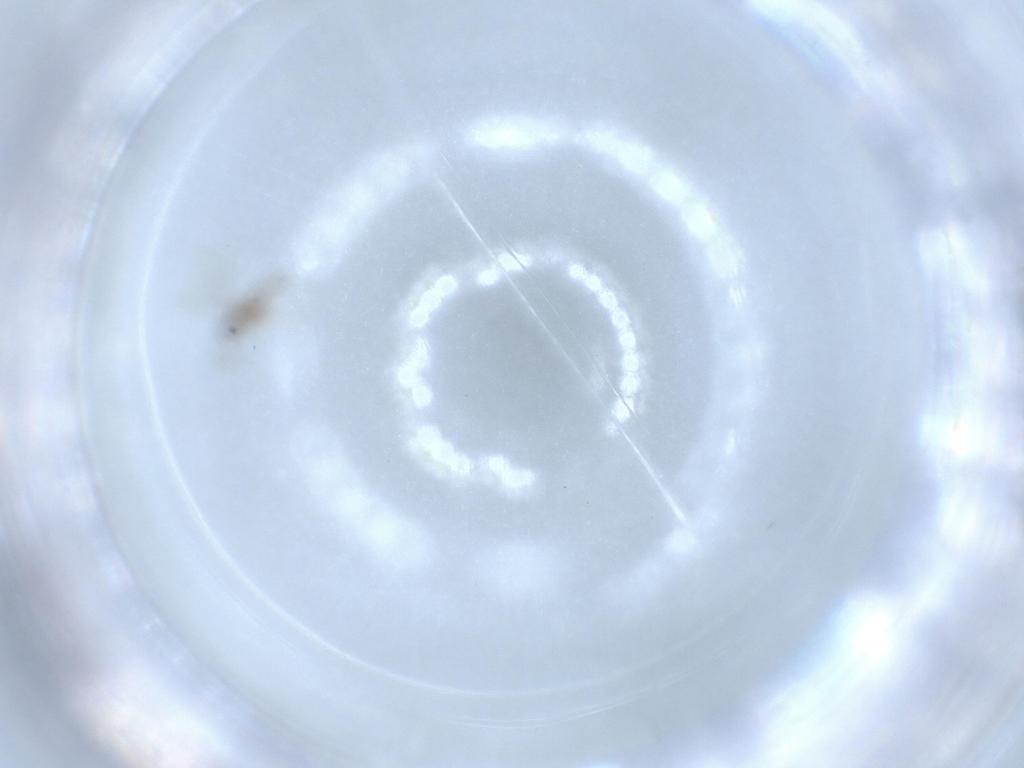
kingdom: Animalia
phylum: Arthropoda
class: Insecta
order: Diptera
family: Cecidomyiidae
